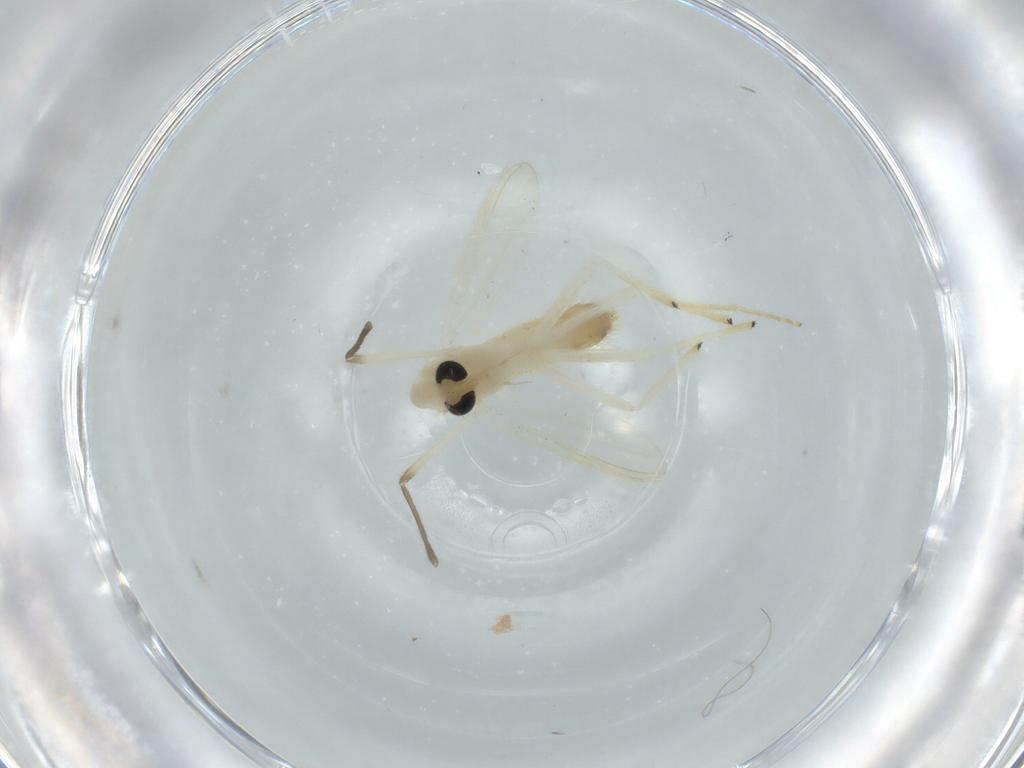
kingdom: Animalia
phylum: Arthropoda
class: Insecta
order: Diptera
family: Chironomidae
